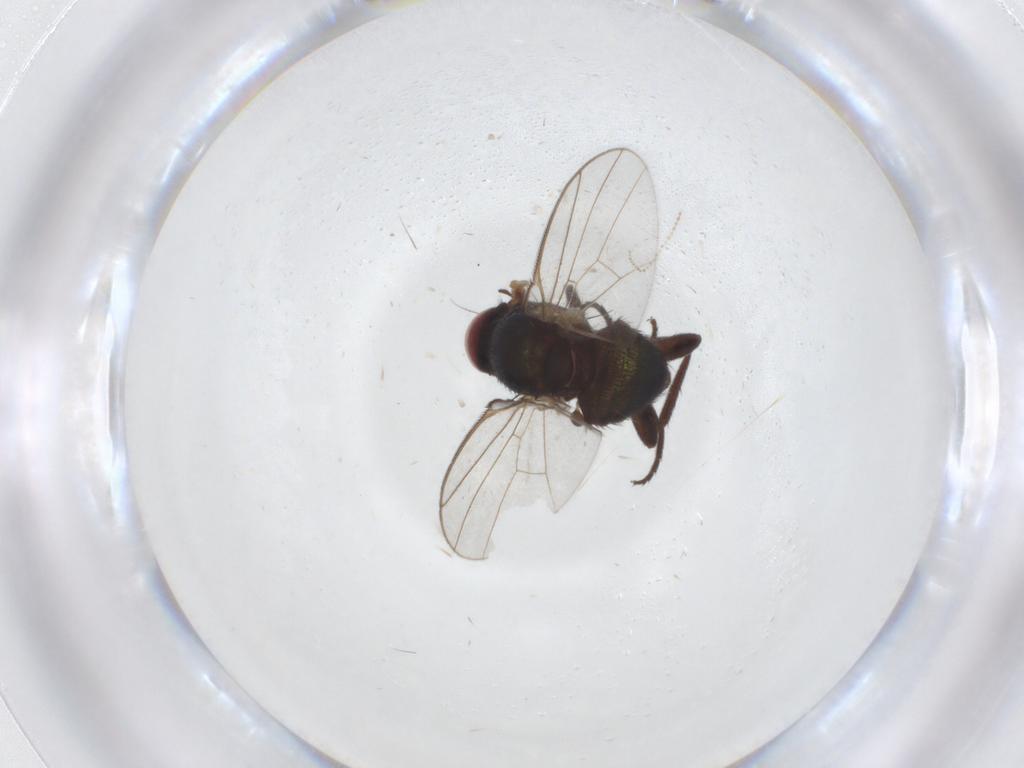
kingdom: Animalia
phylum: Arthropoda
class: Insecta
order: Diptera
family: Agromyzidae
